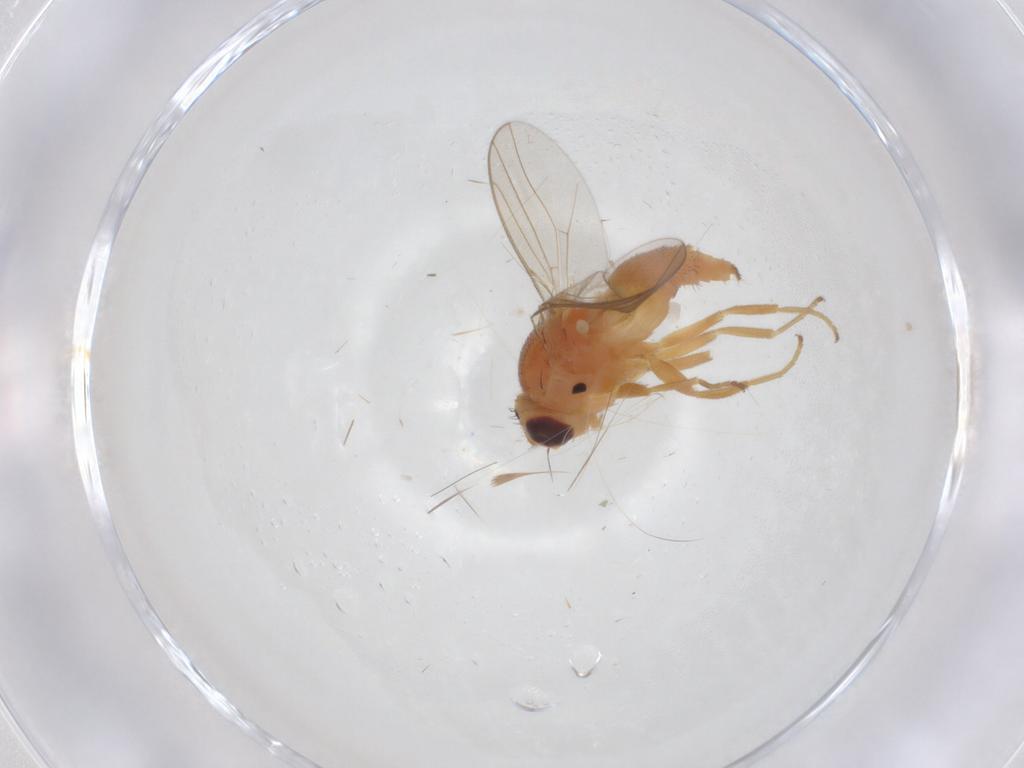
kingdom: Animalia
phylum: Arthropoda
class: Insecta
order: Diptera
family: Chloropidae
